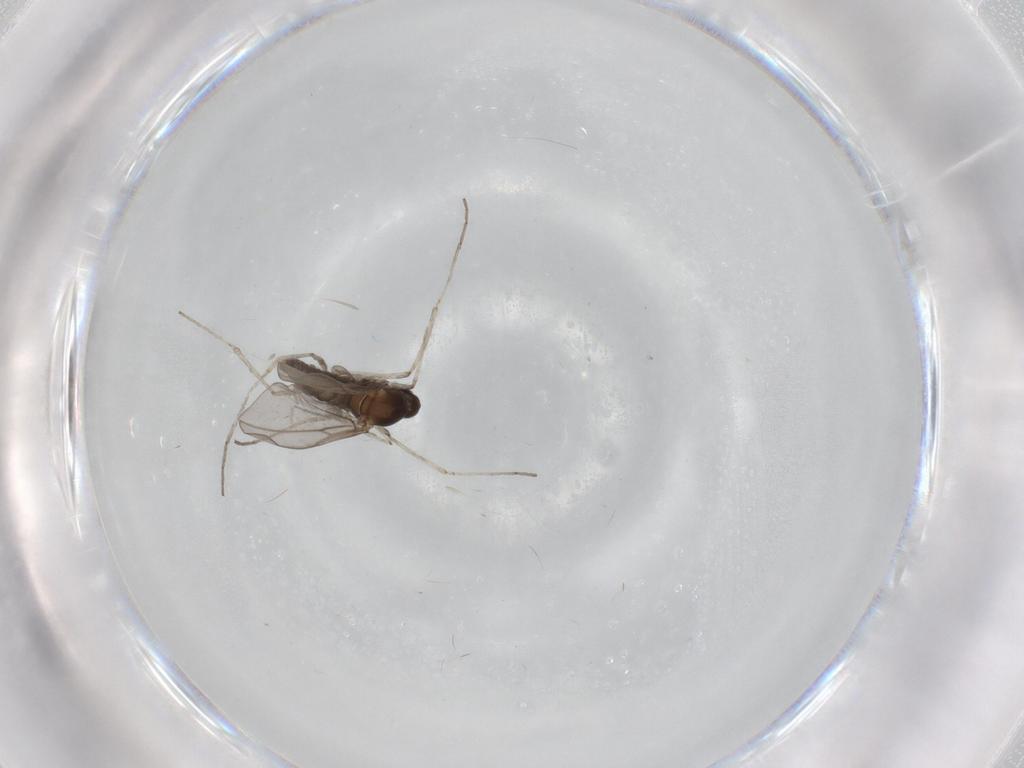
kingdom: Animalia
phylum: Arthropoda
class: Insecta
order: Diptera
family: Cecidomyiidae
